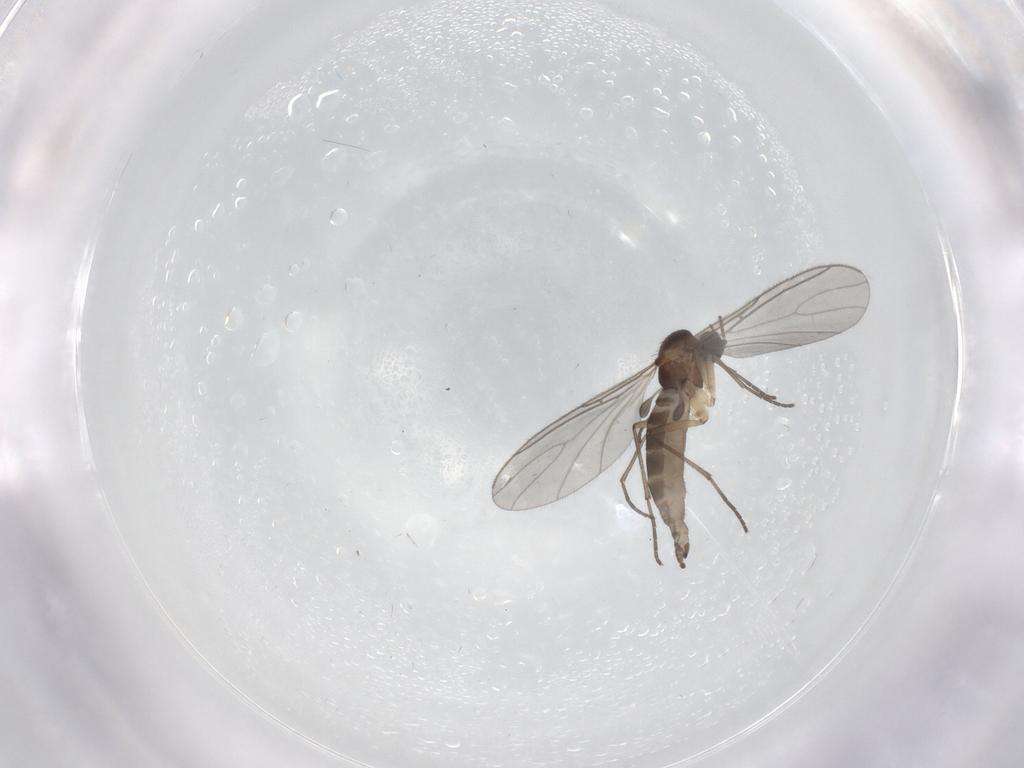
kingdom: Animalia
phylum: Arthropoda
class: Insecta
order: Diptera
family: Sciaridae
